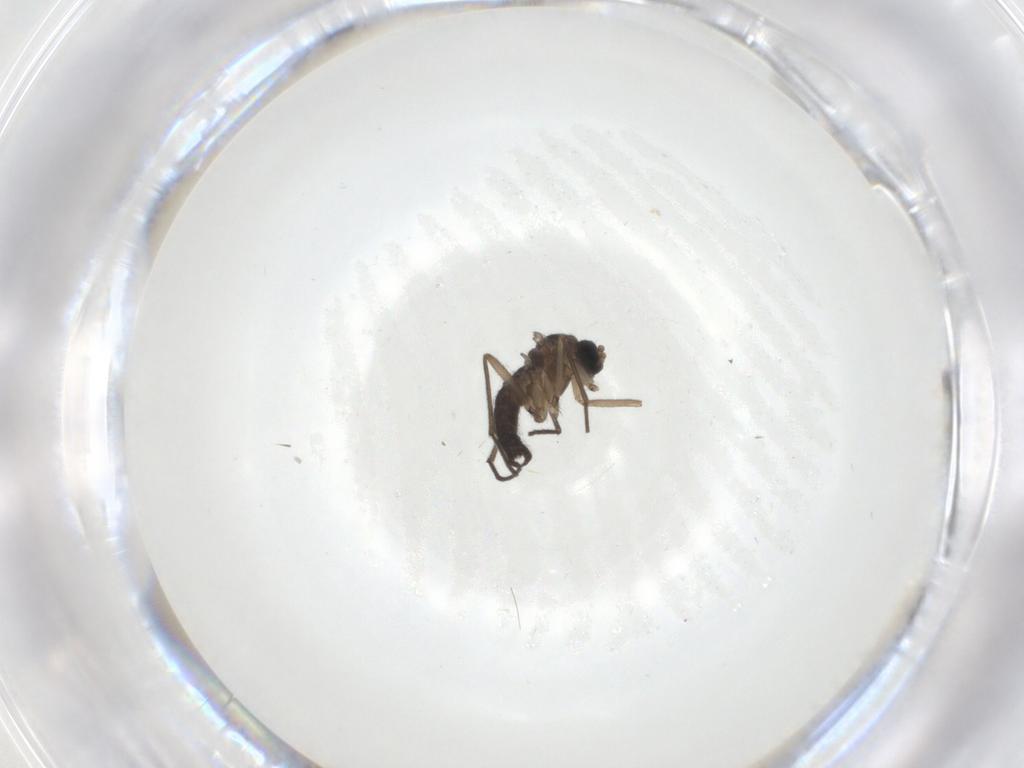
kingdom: Animalia
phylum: Arthropoda
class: Insecta
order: Diptera
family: Sciaridae
